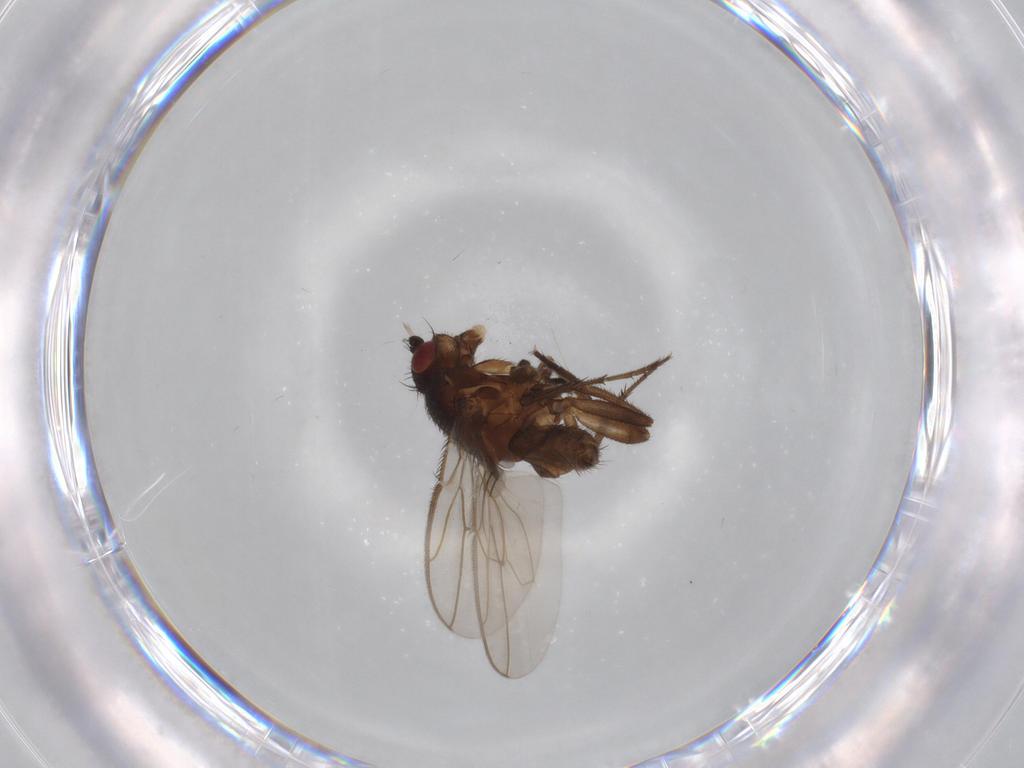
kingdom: Animalia
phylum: Arthropoda
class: Insecta
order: Diptera
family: Sphaeroceridae
